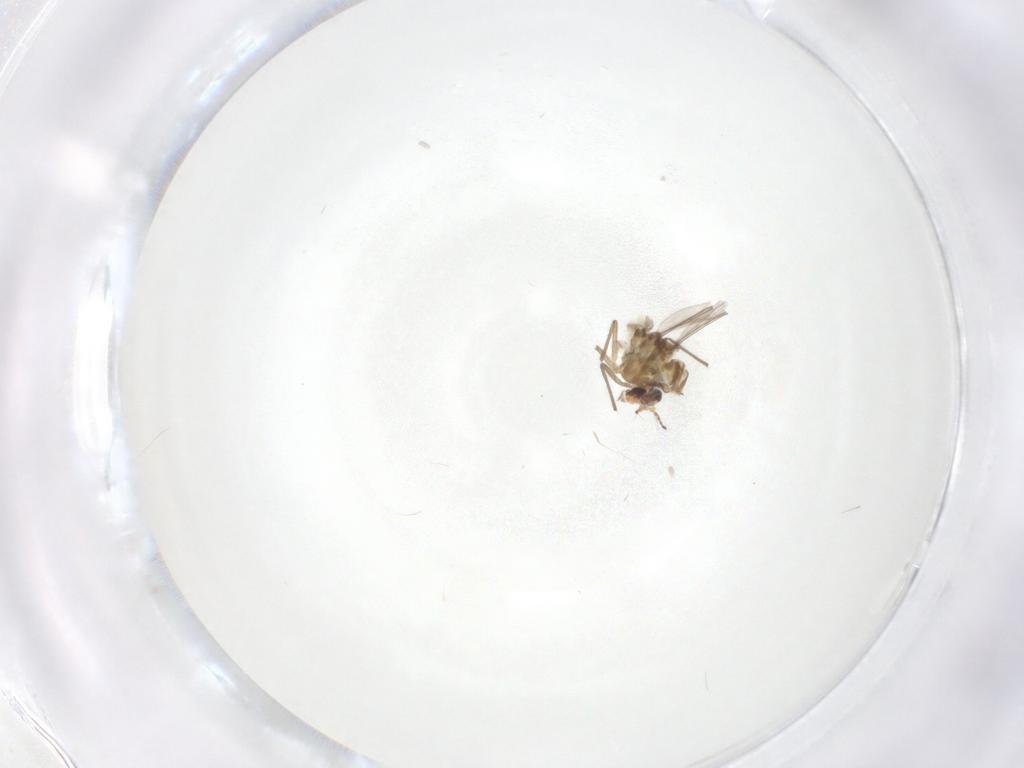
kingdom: Animalia
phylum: Arthropoda
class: Insecta
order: Diptera
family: Chironomidae
